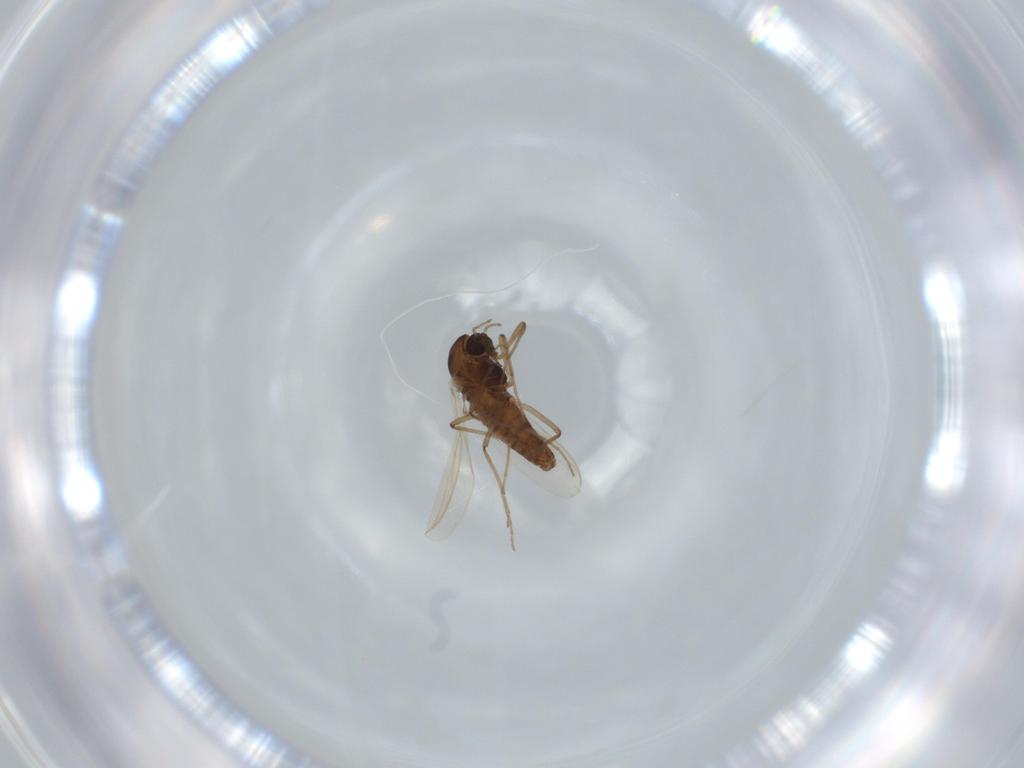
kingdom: Animalia
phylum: Arthropoda
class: Insecta
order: Diptera
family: Chironomidae
